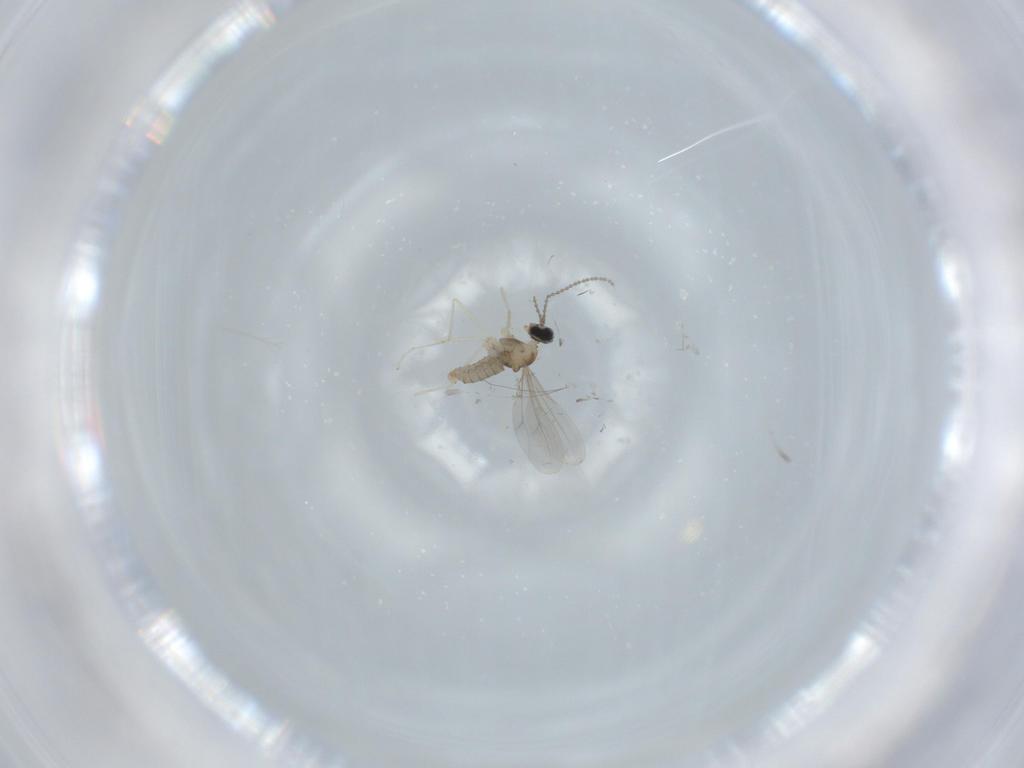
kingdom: Animalia
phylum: Arthropoda
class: Insecta
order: Diptera
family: Cecidomyiidae
